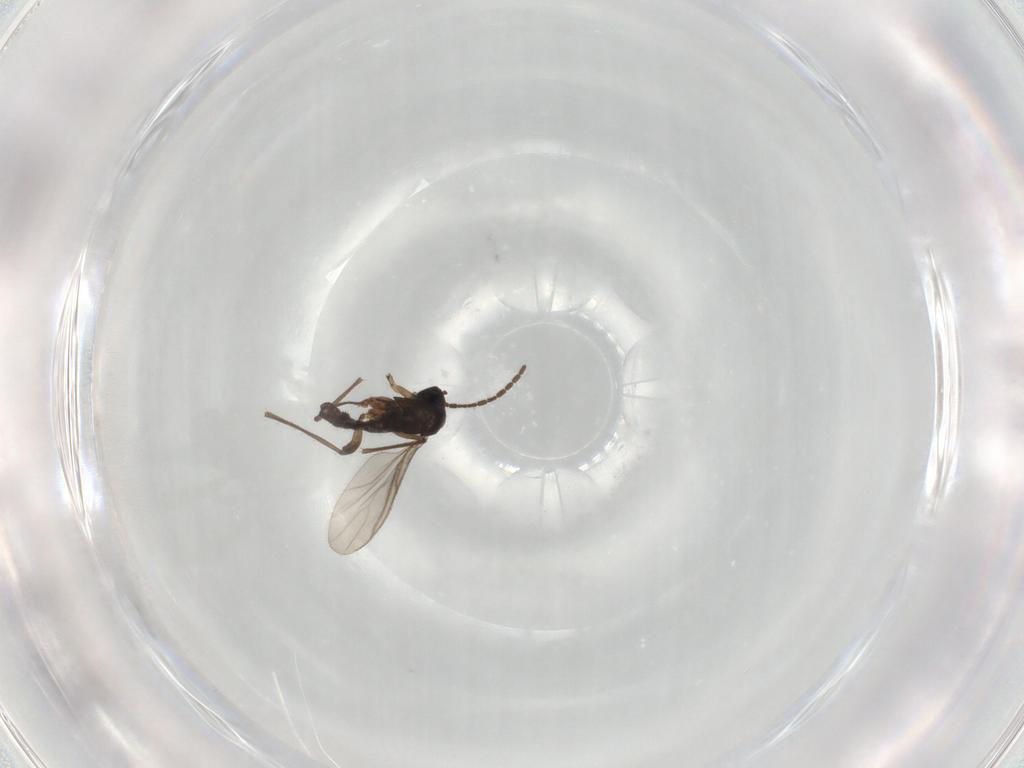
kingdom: Animalia
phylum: Arthropoda
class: Insecta
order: Diptera
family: Sciaridae
